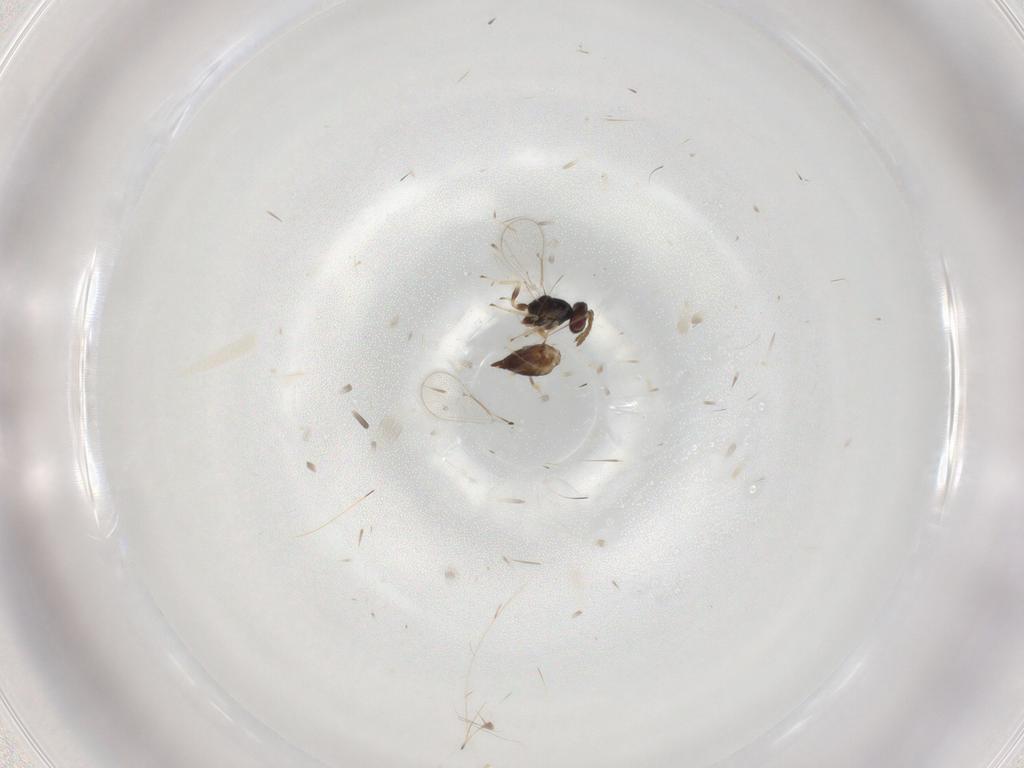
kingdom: Animalia
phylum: Arthropoda
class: Insecta
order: Hymenoptera
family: Eulophidae
